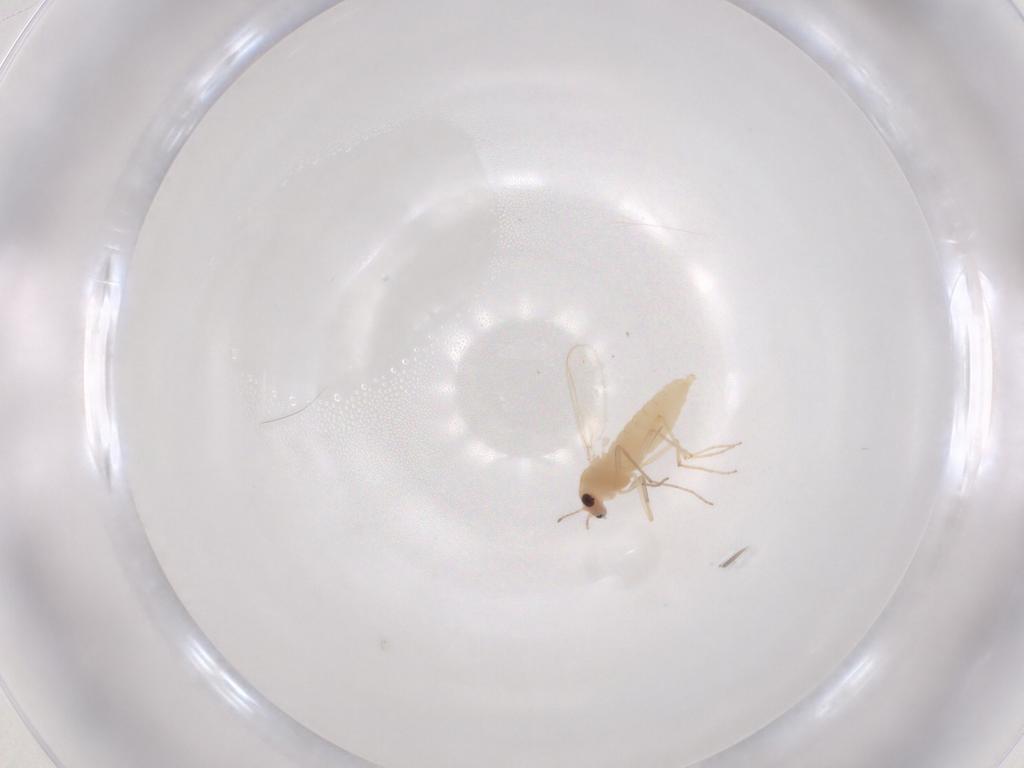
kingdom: Animalia
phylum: Arthropoda
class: Insecta
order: Diptera
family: Chironomidae
